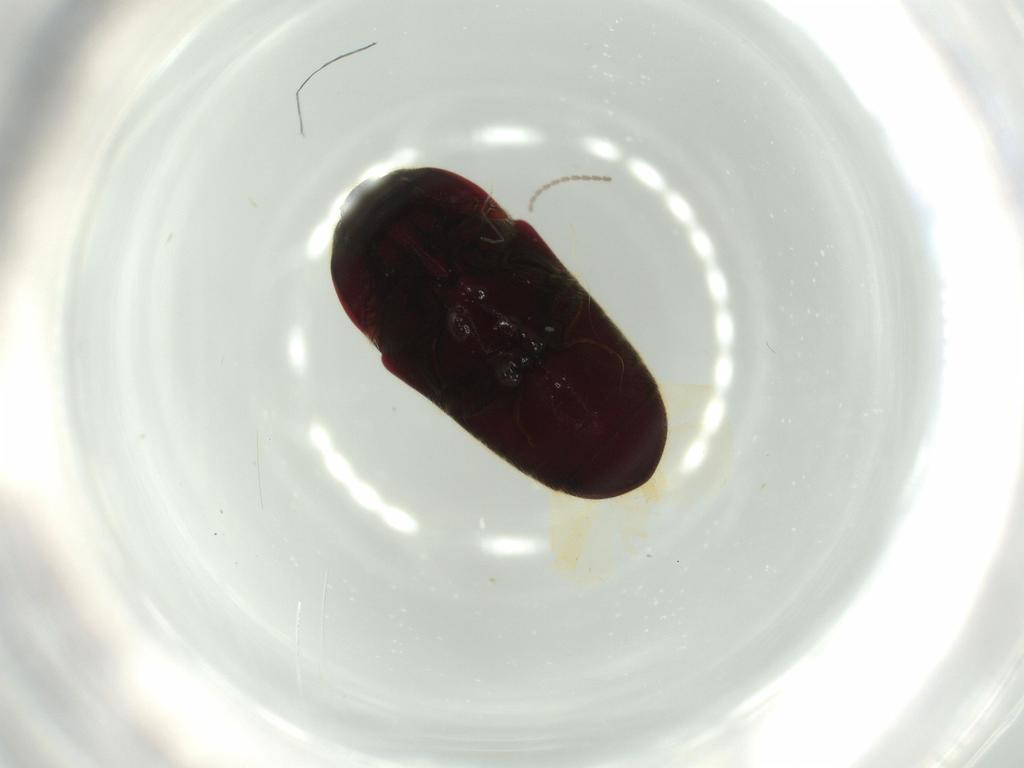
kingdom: Animalia
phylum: Arthropoda
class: Insecta
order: Coleoptera
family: Throscidae
